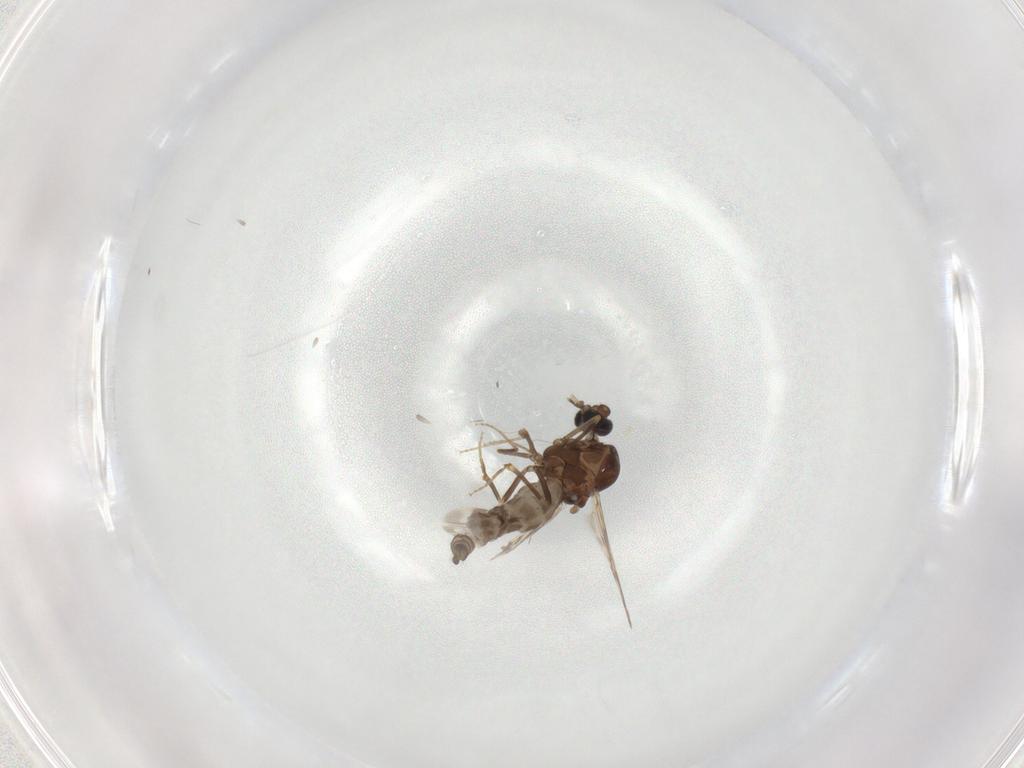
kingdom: Animalia
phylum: Arthropoda
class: Insecta
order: Diptera
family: Ceratopogonidae
